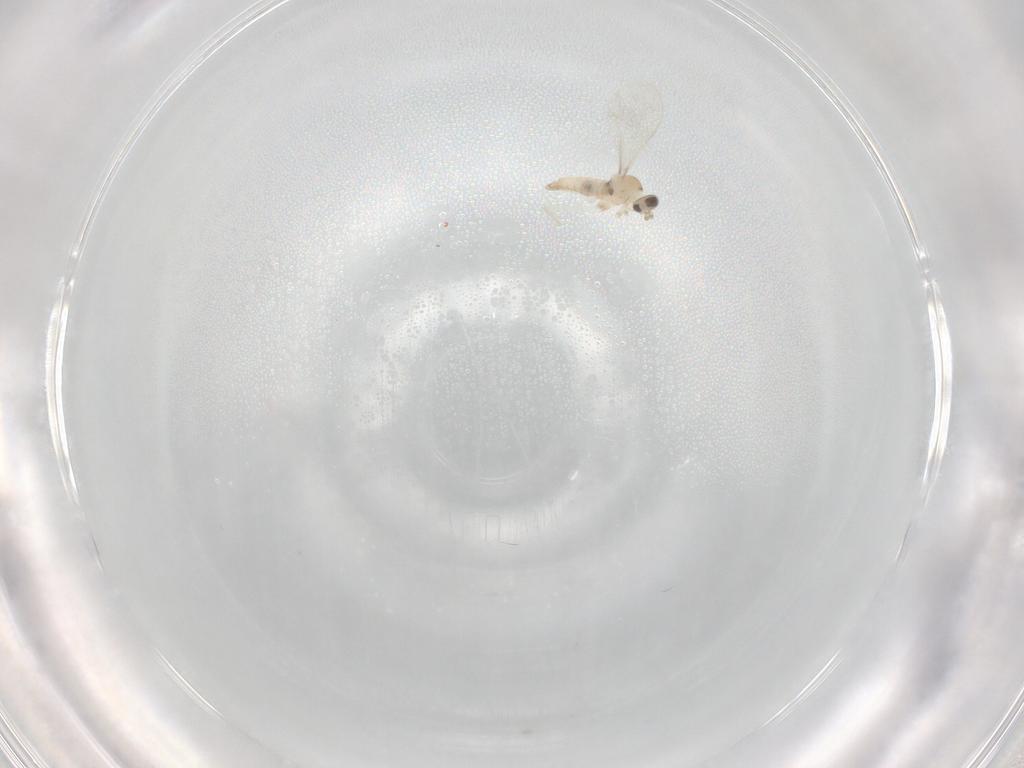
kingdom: Animalia
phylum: Arthropoda
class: Insecta
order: Diptera
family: Cecidomyiidae
